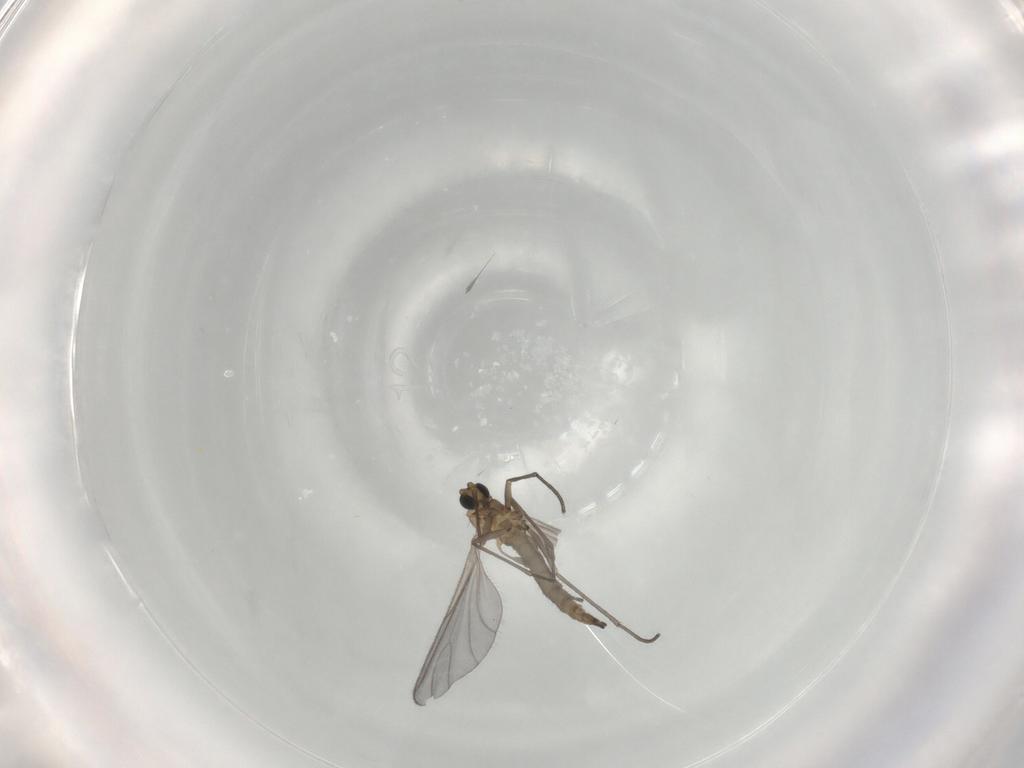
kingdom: Animalia
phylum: Arthropoda
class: Insecta
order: Diptera
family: Sciaridae
